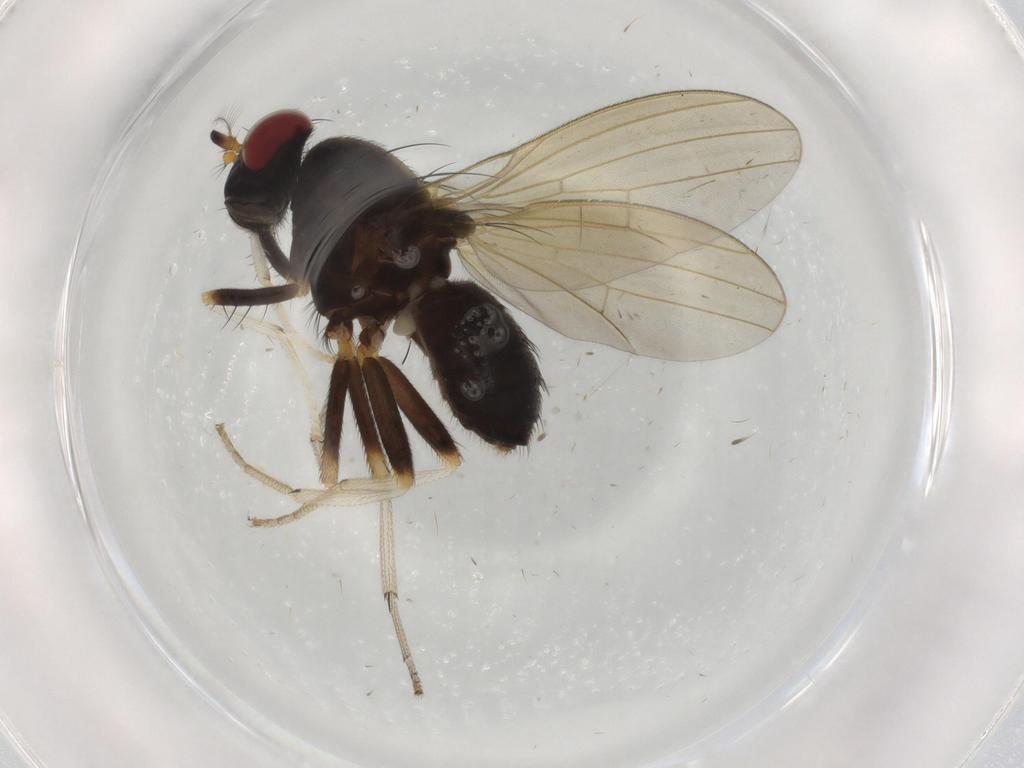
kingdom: Animalia
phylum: Arthropoda
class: Insecta
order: Diptera
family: Lauxaniidae
